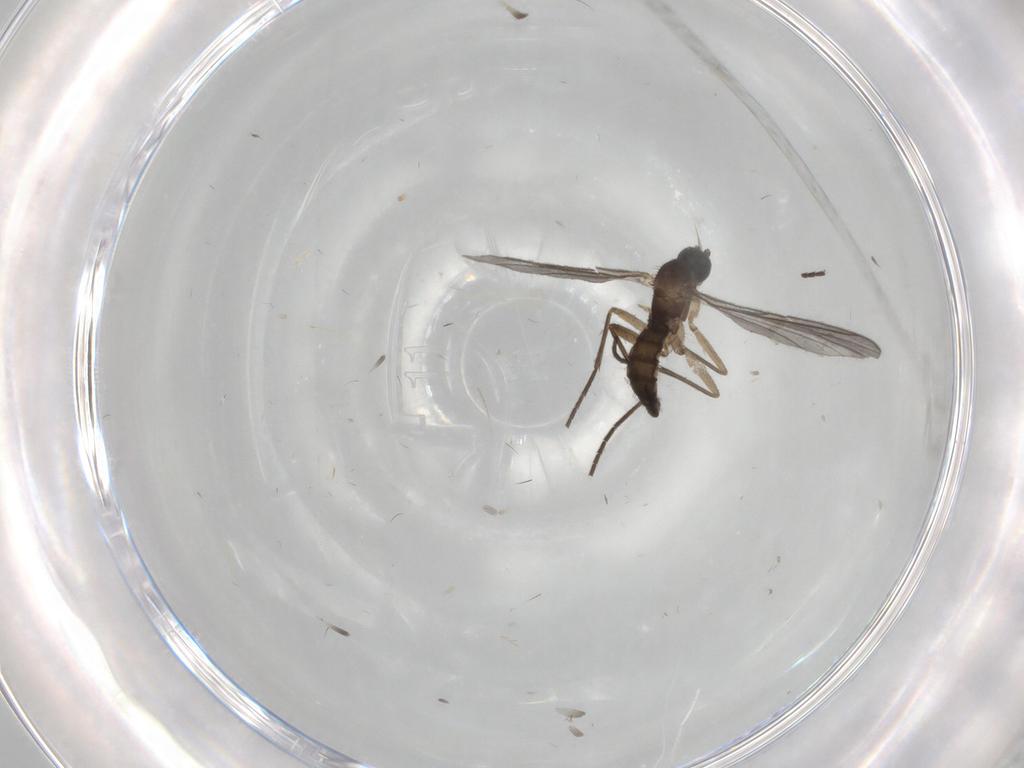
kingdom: Animalia
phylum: Arthropoda
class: Insecta
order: Diptera
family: Sciaridae
